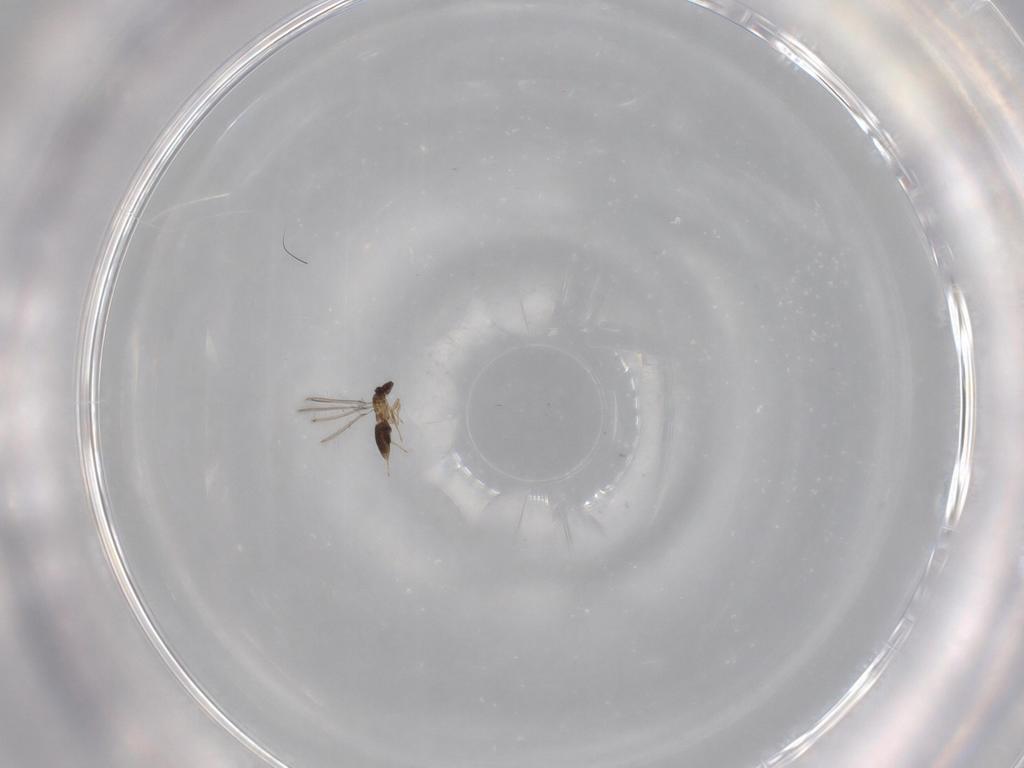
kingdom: Animalia
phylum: Arthropoda
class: Insecta
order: Hymenoptera
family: Mymaridae
